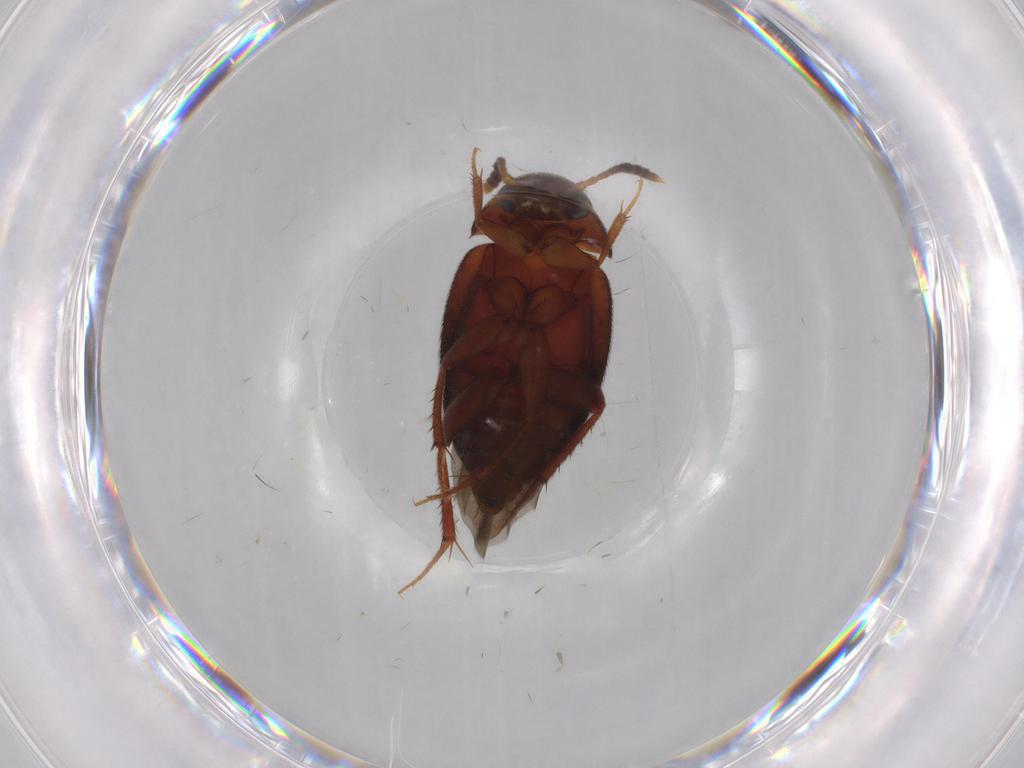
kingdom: Animalia
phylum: Arthropoda
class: Insecta
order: Coleoptera
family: Leiodidae
